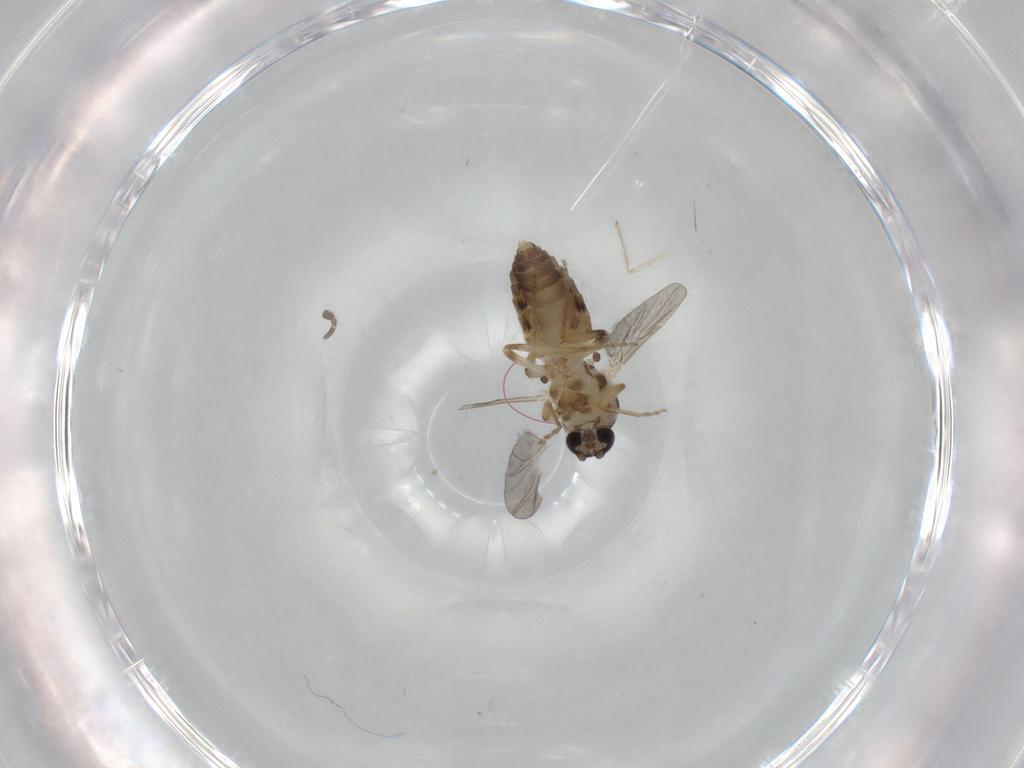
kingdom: Animalia
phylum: Arthropoda
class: Insecta
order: Diptera
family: Ceratopogonidae
